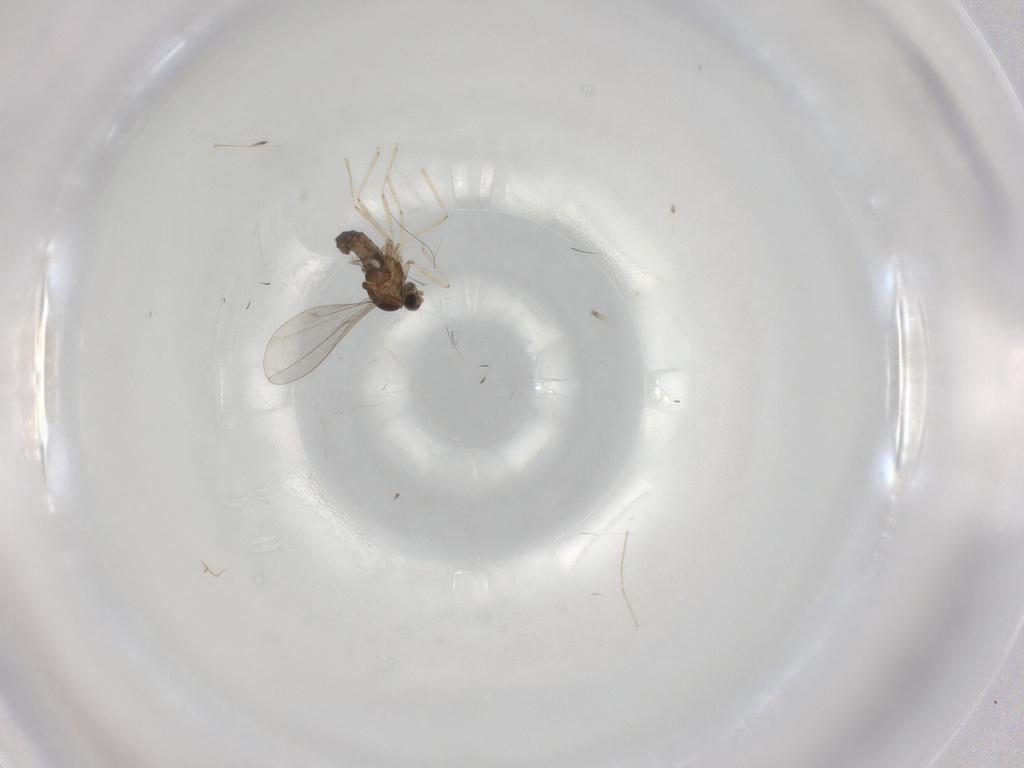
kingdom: Animalia
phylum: Arthropoda
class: Insecta
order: Diptera
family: Cecidomyiidae
